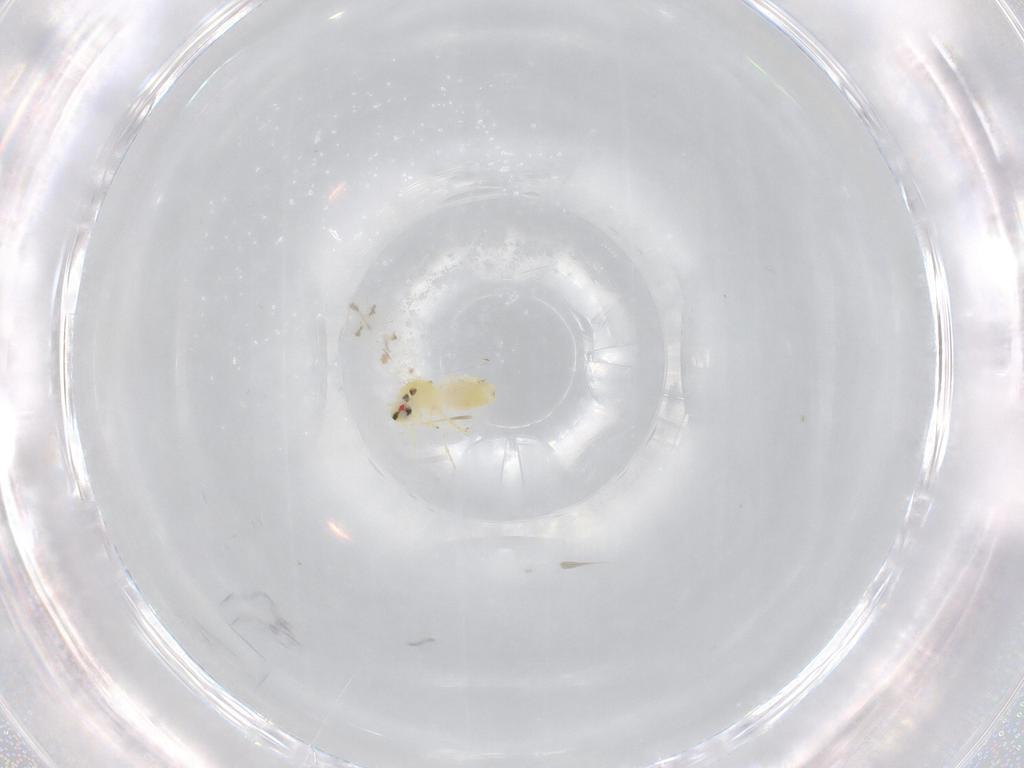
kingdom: Animalia
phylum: Arthropoda
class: Insecta
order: Hemiptera
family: Aleyrodidae
